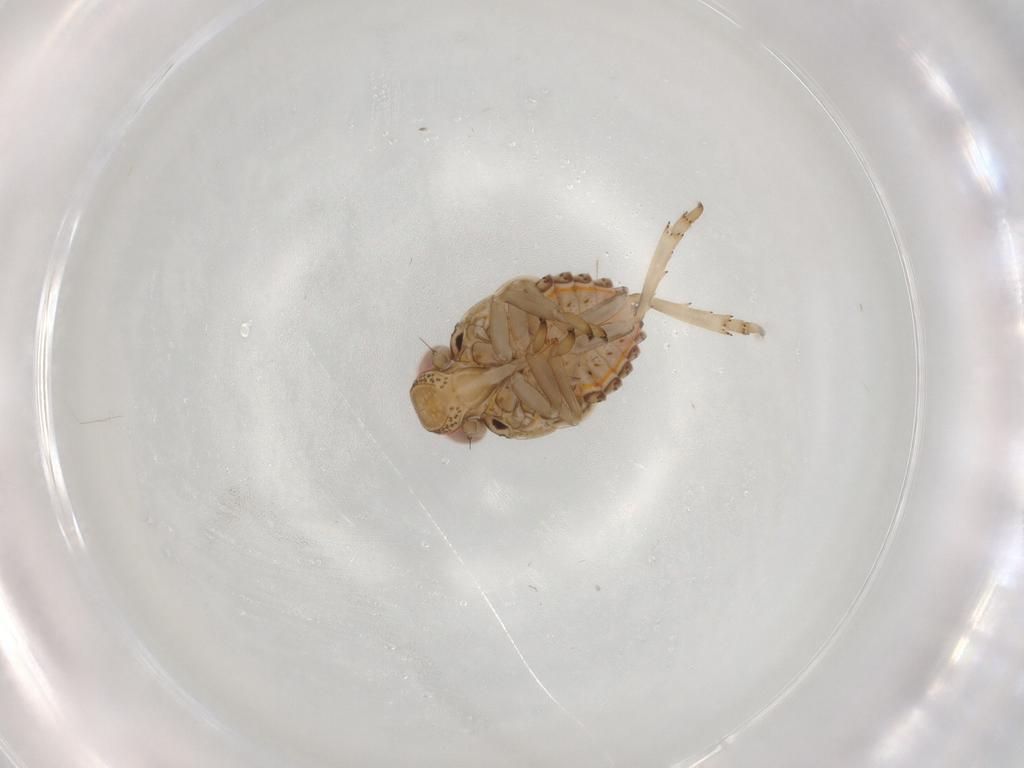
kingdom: Animalia
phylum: Arthropoda
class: Insecta
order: Hemiptera
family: Issidae
